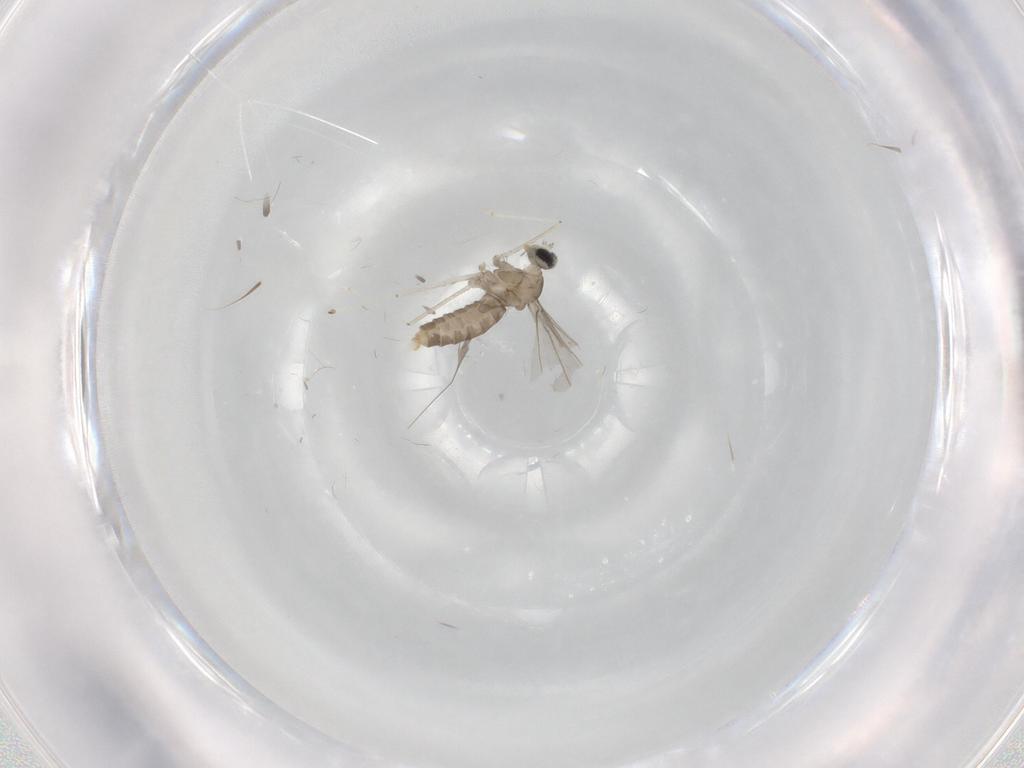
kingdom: Animalia
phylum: Arthropoda
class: Insecta
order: Diptera
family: Cecidomyiidae
